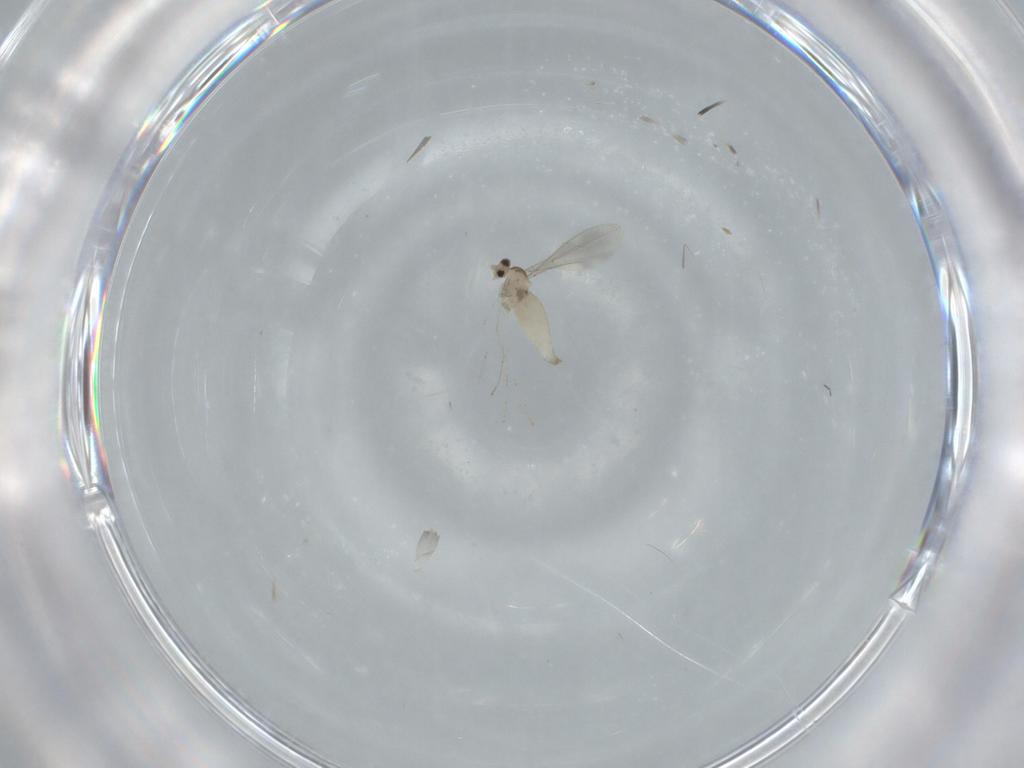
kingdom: Animalia
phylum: Arthropoda
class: Insecta
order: Diptera
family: Cecidomyiidae
